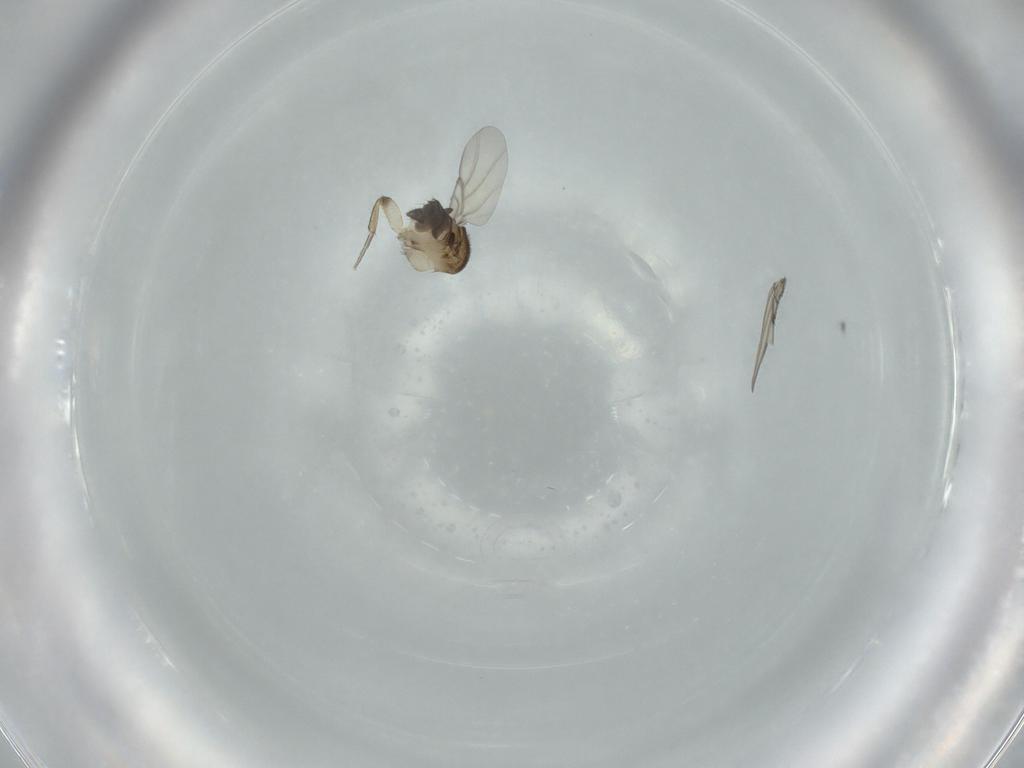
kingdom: Animalia
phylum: Arthropoda
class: Insecta
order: Diptera
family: Phoridae
